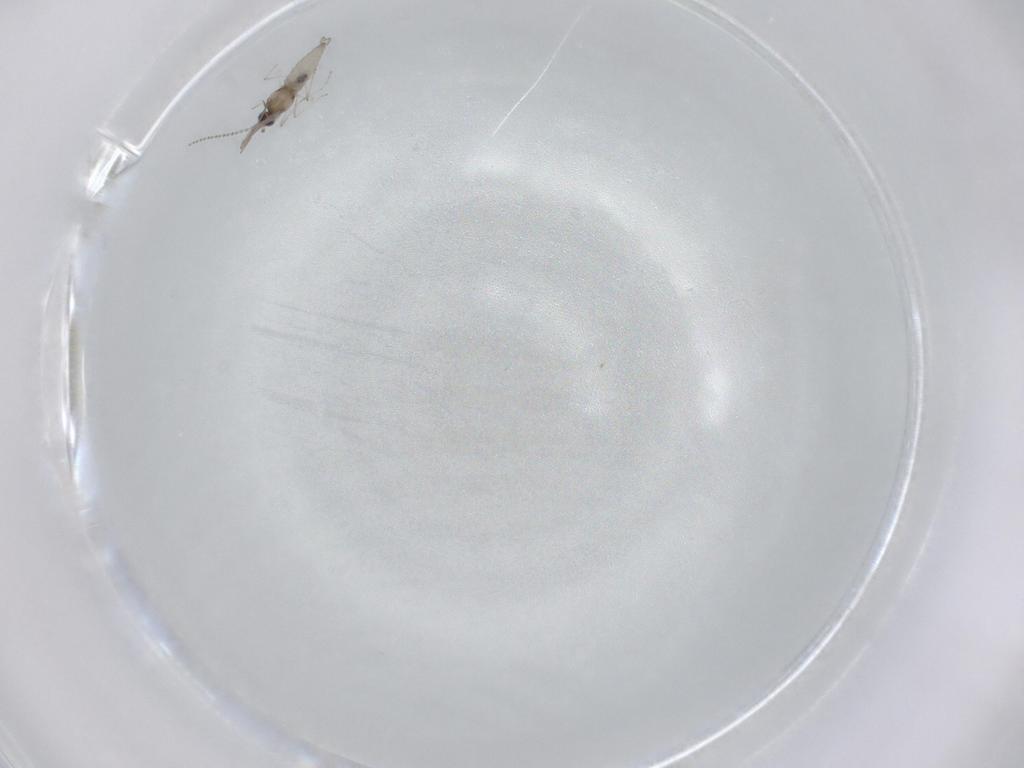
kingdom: Animalia
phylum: Arthropoda
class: Insecta
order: Diptera
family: Cecidomyiidae
